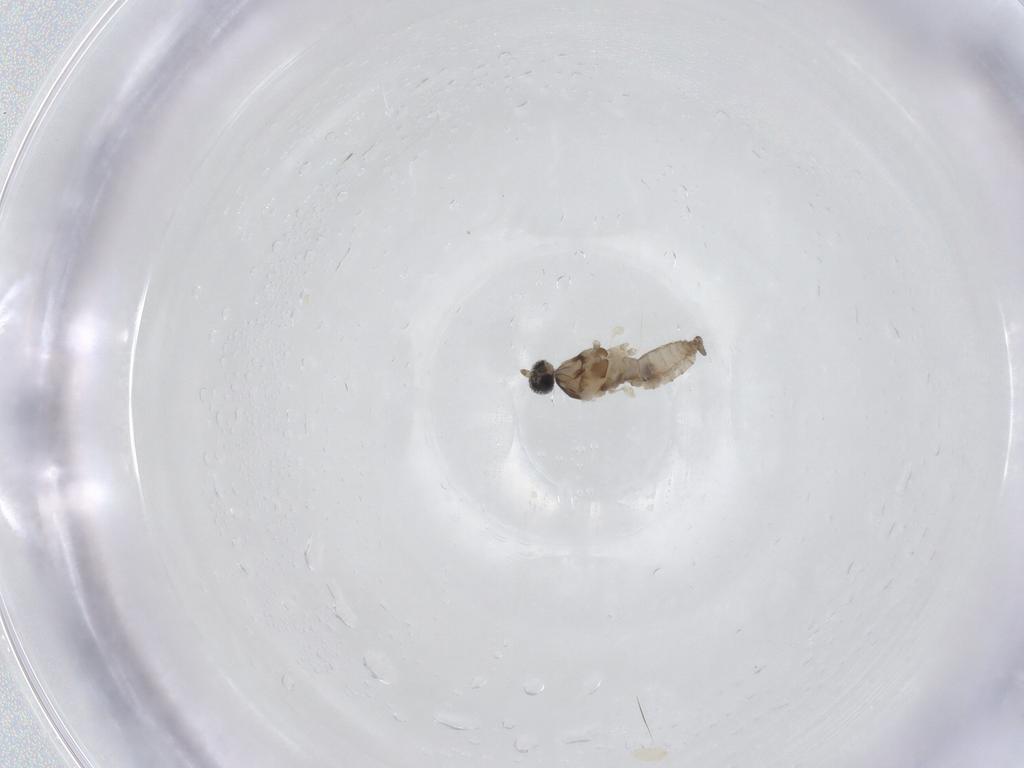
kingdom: Animalia
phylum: Arthropoda
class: Insecta
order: Diptera
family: Cecidomyiidae
